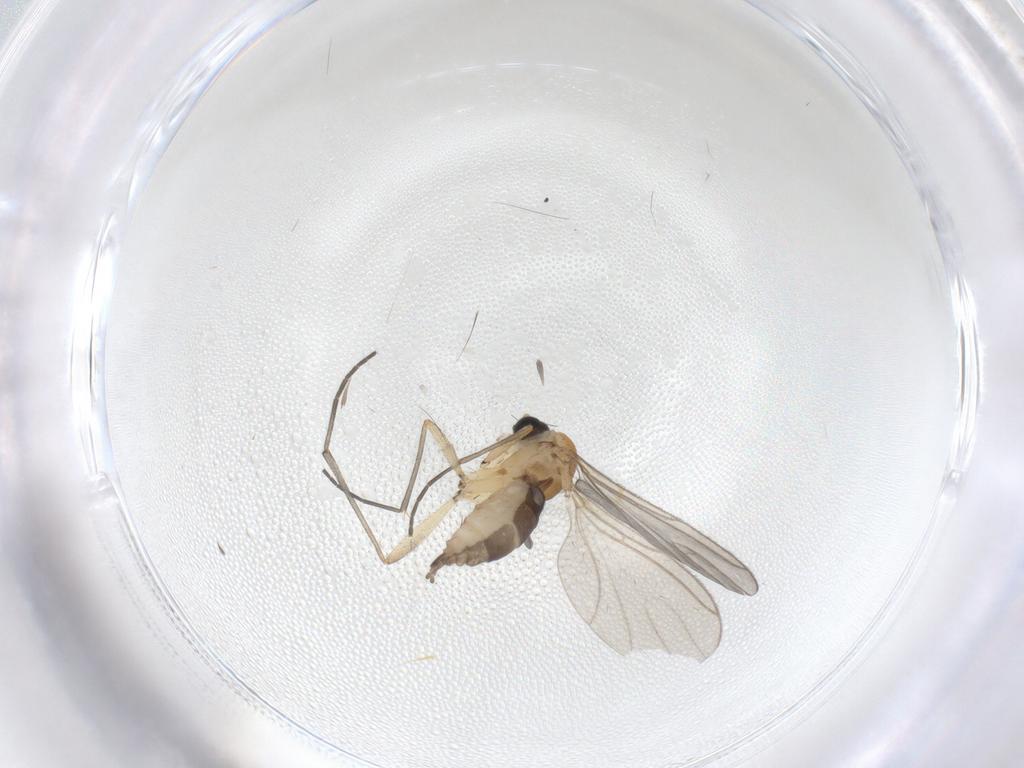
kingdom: Animalia
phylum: Arthropoda
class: Insecta
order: Diptera
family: Sciaridae
